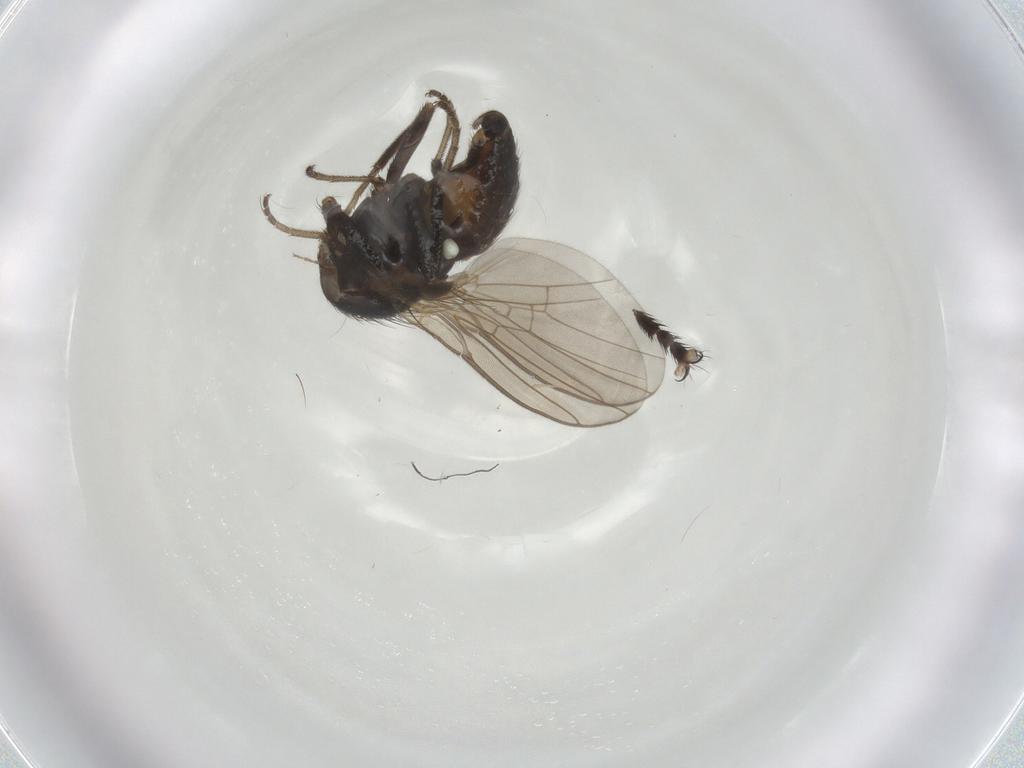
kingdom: Animalia
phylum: Arthropoda
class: Insecta
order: Diptera
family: Agromyzidae
